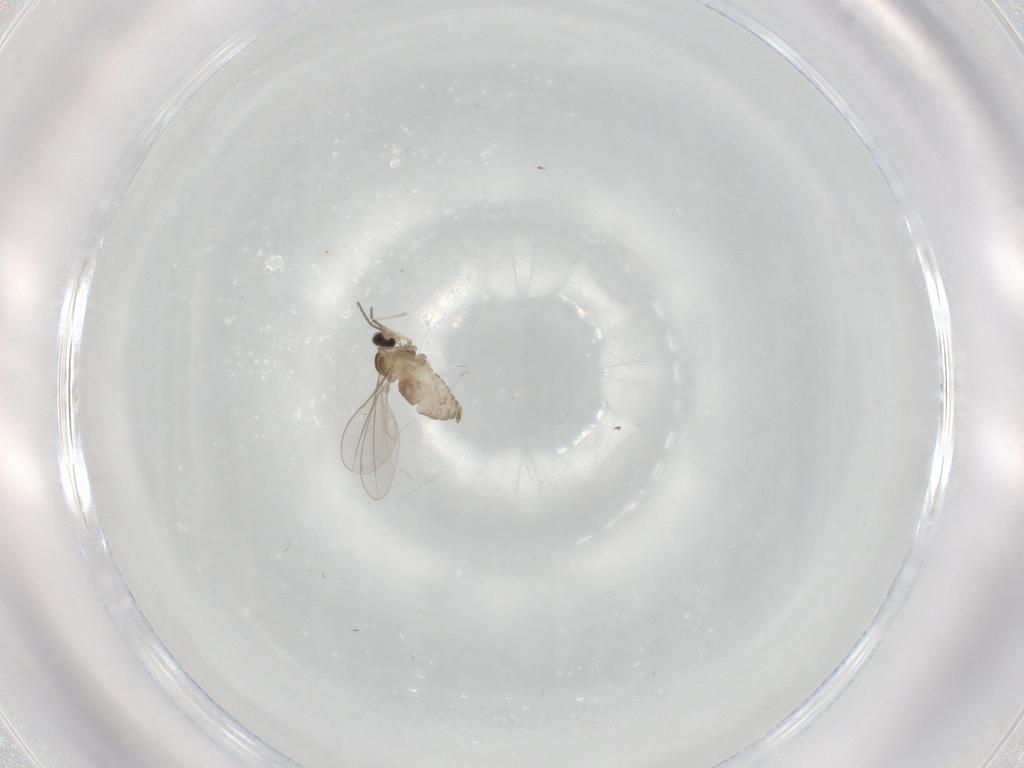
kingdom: Animalia
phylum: Arthropoda
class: Insecta
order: Diptera
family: Cecidomyiidae
